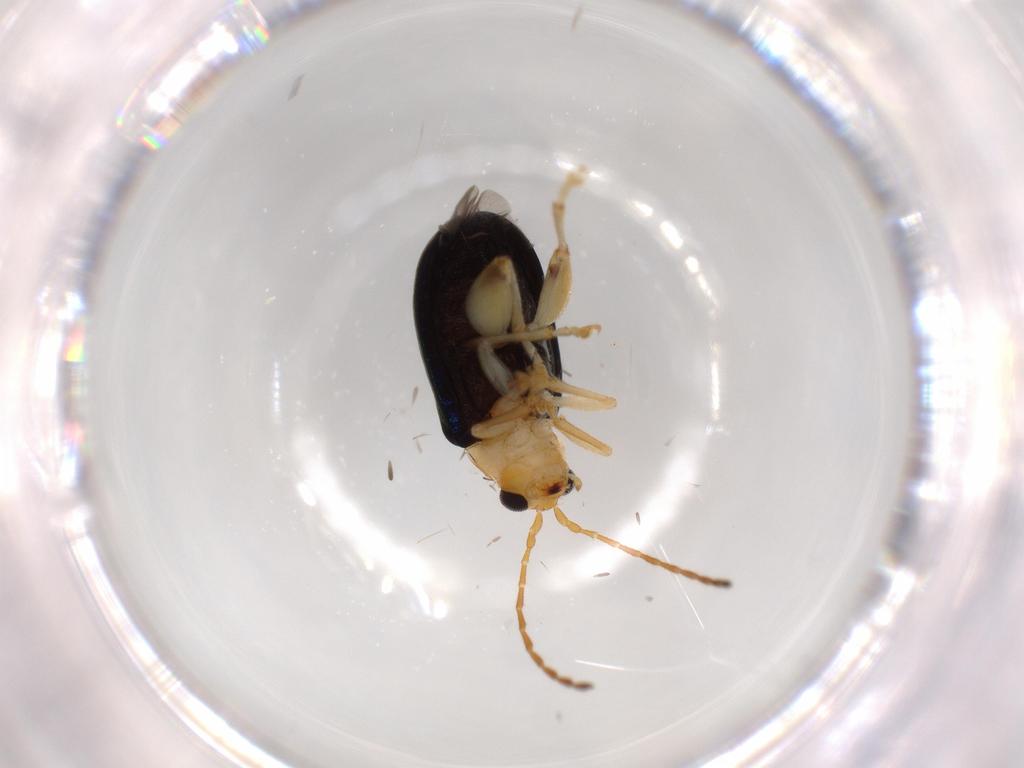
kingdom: Animalia
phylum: Arthropoda
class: Insecta
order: Coleoptera
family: Chrysomelidae
